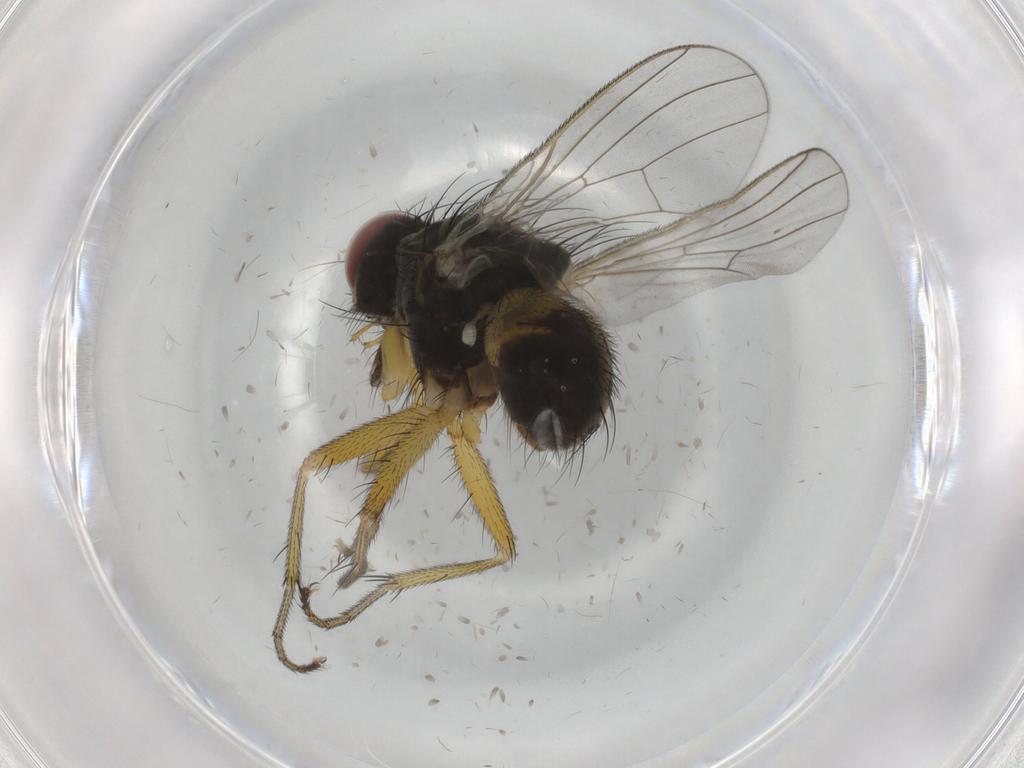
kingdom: Animalia
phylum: Arthropoda
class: Insecta
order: Diptera
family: Muscidae
